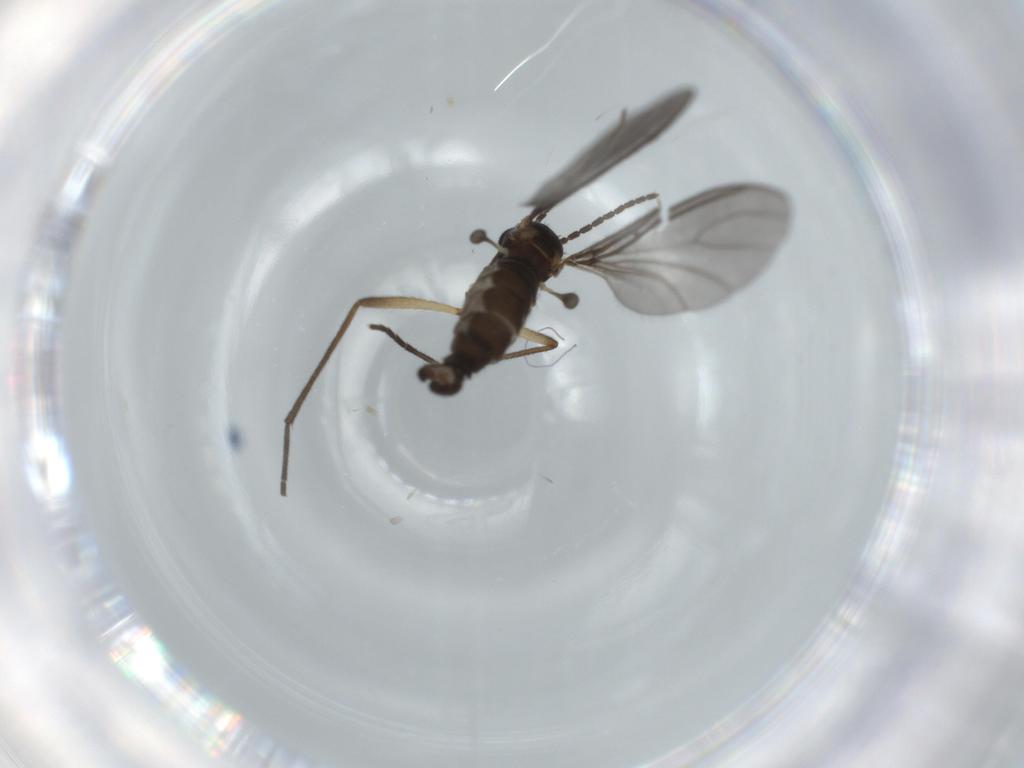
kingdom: Animalia
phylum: Arthropoda
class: Insecta
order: Diptera
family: Sciaridae
